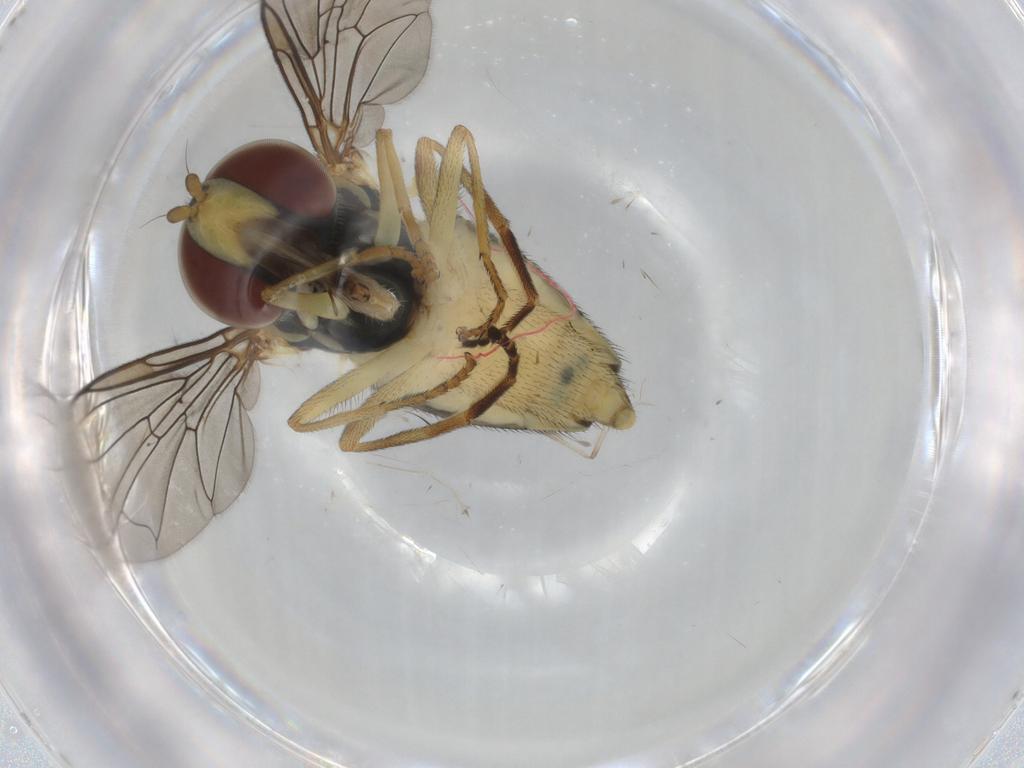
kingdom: Animalia
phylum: Arthropoda
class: Insecta
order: Diptera
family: Syrphidae
